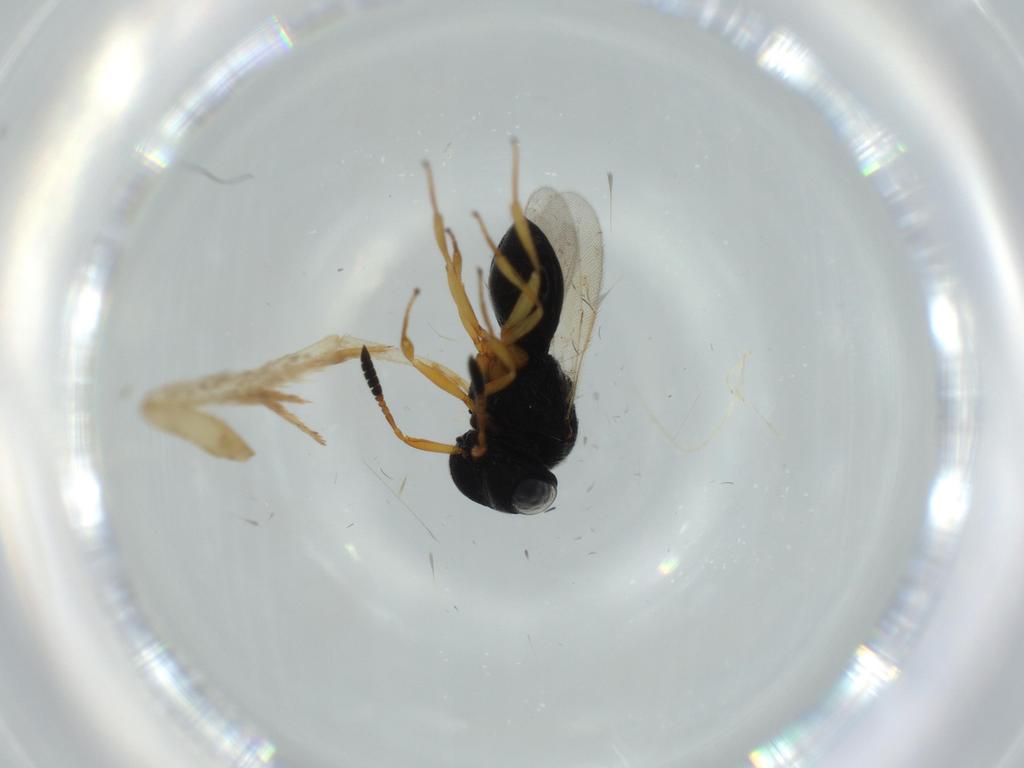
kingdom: Animalia
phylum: Arthropoda
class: Insecta
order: Hymenoptera
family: Scelionidae
